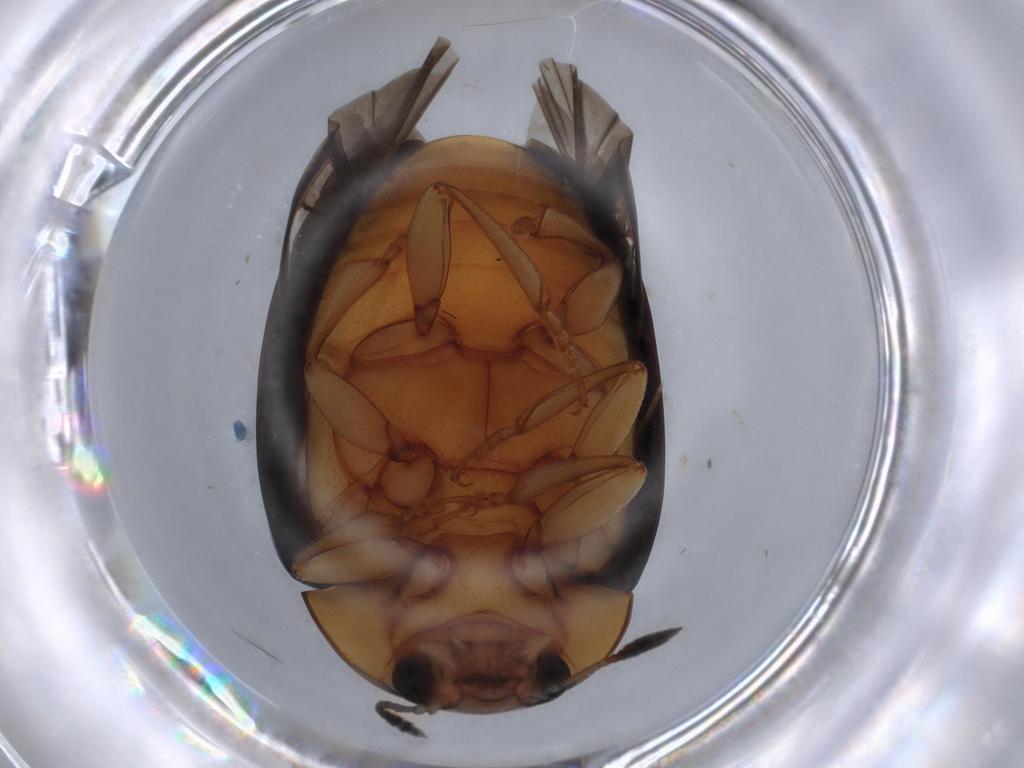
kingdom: Animalia
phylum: Arthropoda
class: Insecta
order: Coleoptera
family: Erotylidae
